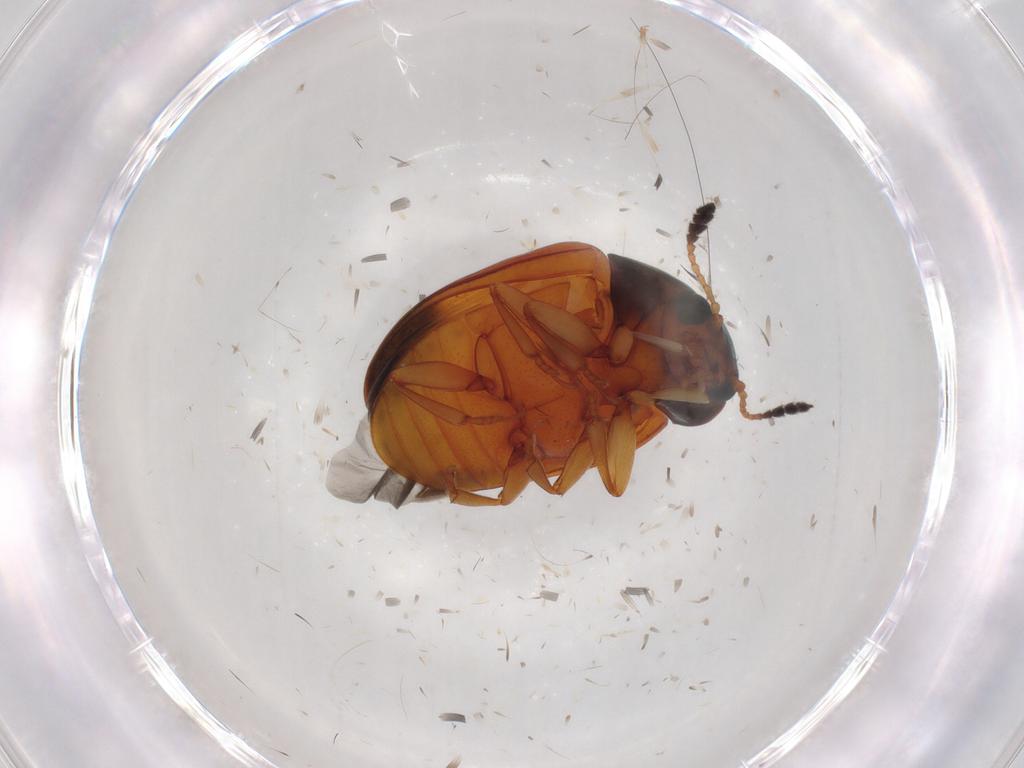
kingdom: Animalia
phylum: Arthropoda
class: Insecta
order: Coleoptera
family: Erotylidae
